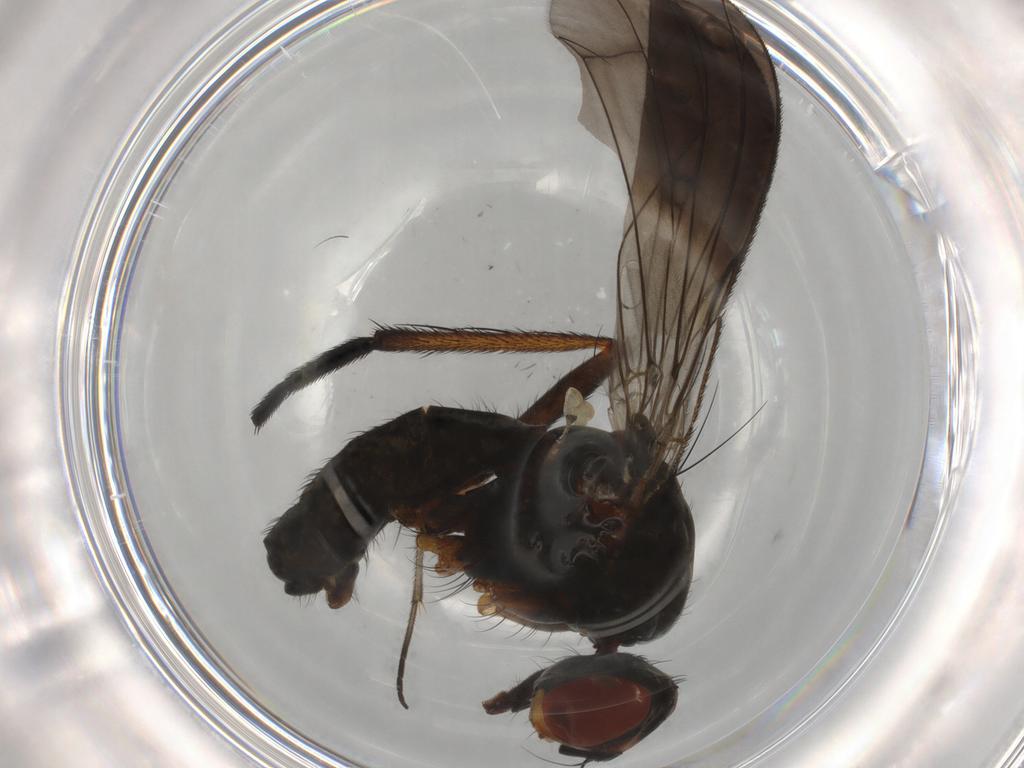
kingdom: Animalia
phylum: Arthropoda
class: Insecta
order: Diptera
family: Anthomyiidae
